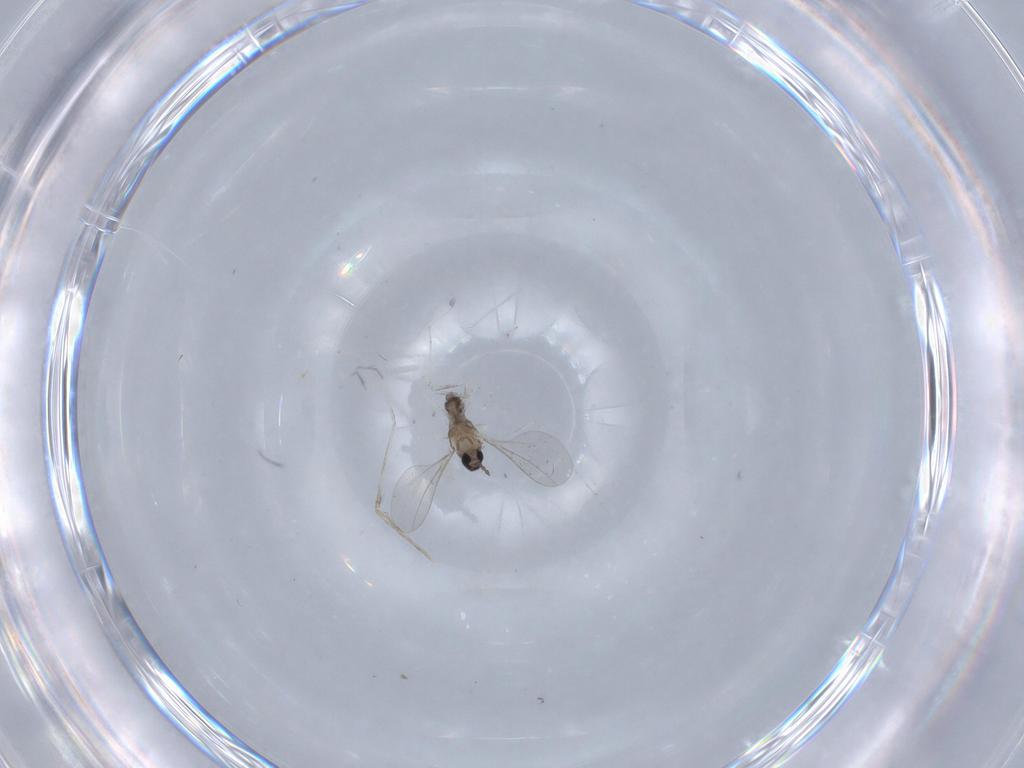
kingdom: Animalia
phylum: Arthropoda
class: Insecta
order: Diptera
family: Cecidomyiidae
